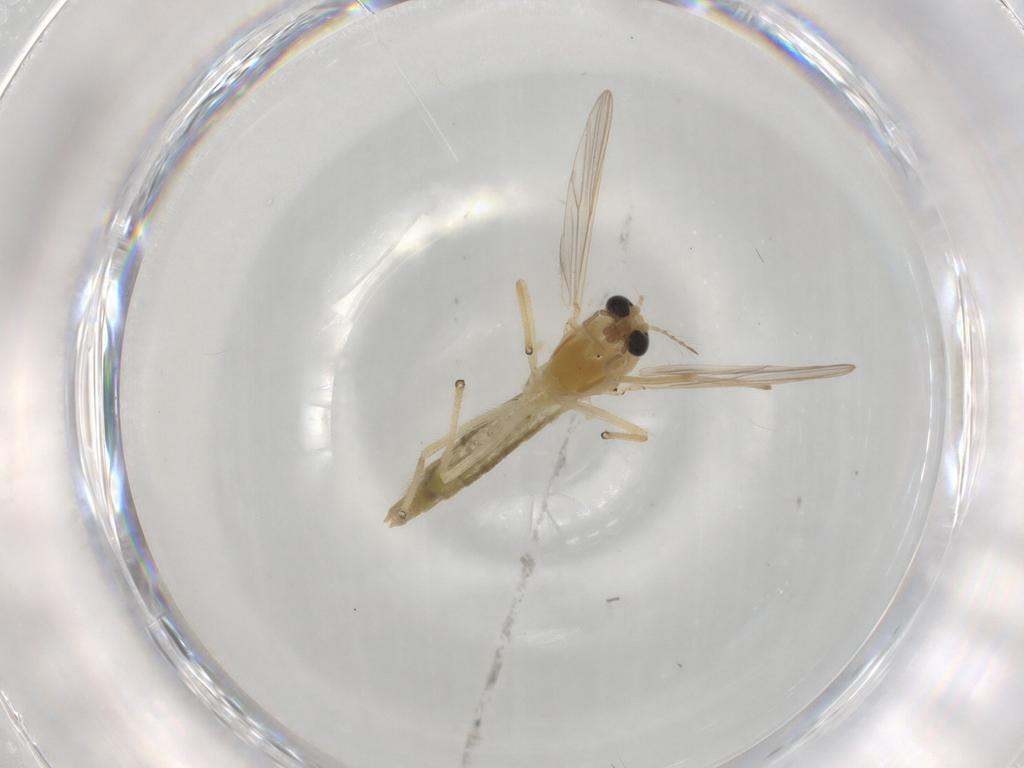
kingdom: Animalia
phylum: Arthropoda
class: Insecta
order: Diptera
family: Chironomidae
